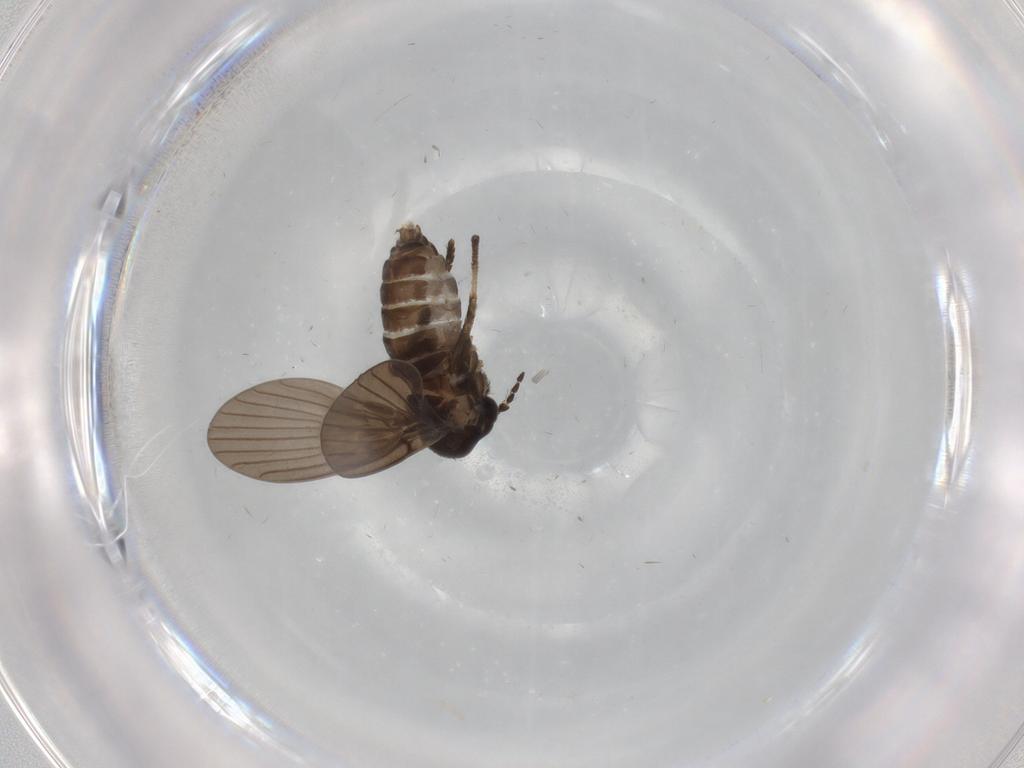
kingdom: Animalia
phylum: Arthropoda
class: Insecta
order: Diptera
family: Psychodidae
